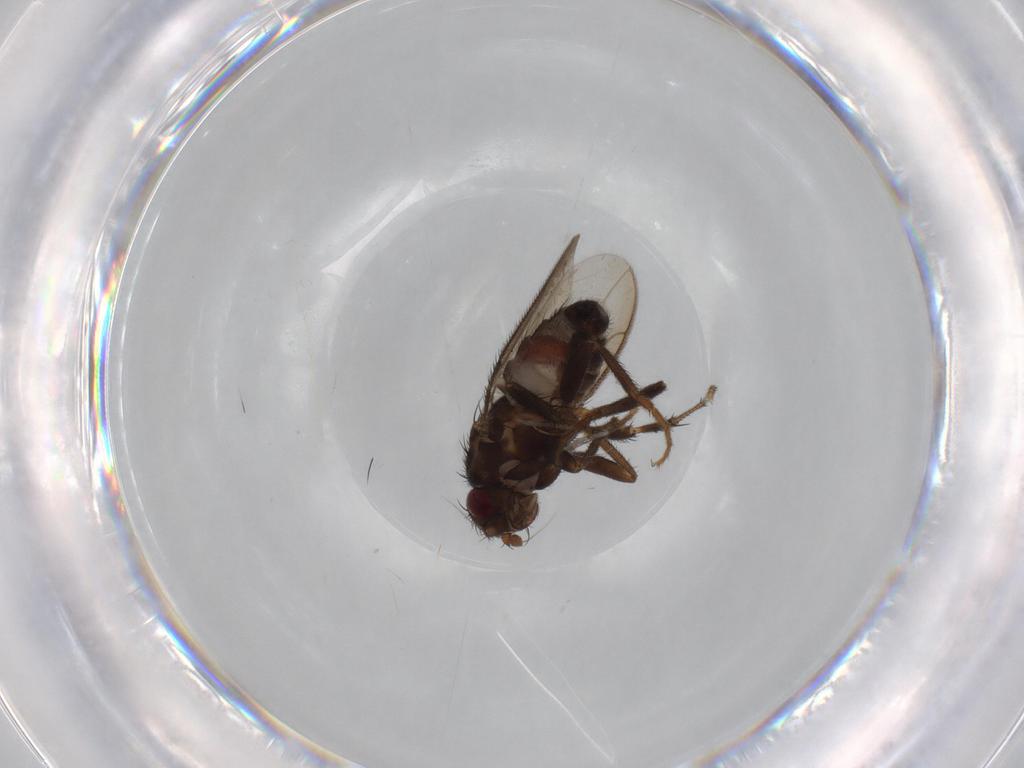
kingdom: Animalia
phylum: Arthropoda
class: Insecta
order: Diptera
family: Sphaeroceridae
